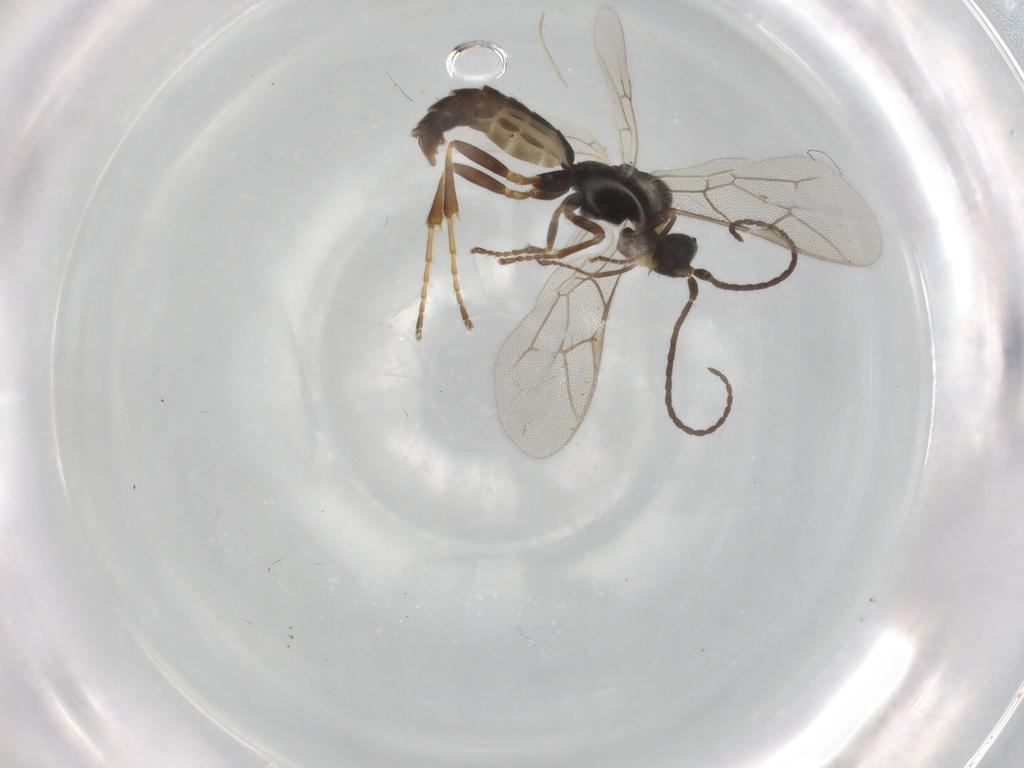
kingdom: Animalia
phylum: Arthropoda
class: Insecta
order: Hymenoptera
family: Ichneumonidae
